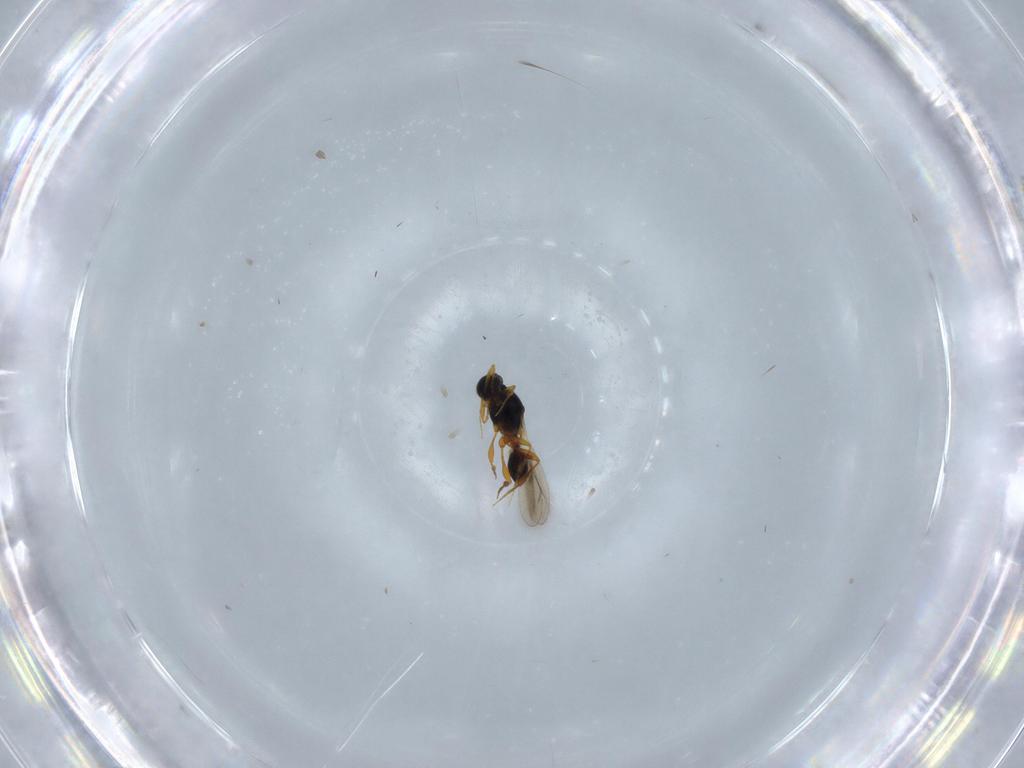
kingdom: Animalia
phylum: Arthropoda
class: Insecta
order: Hymenoptera
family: Platygastridae
